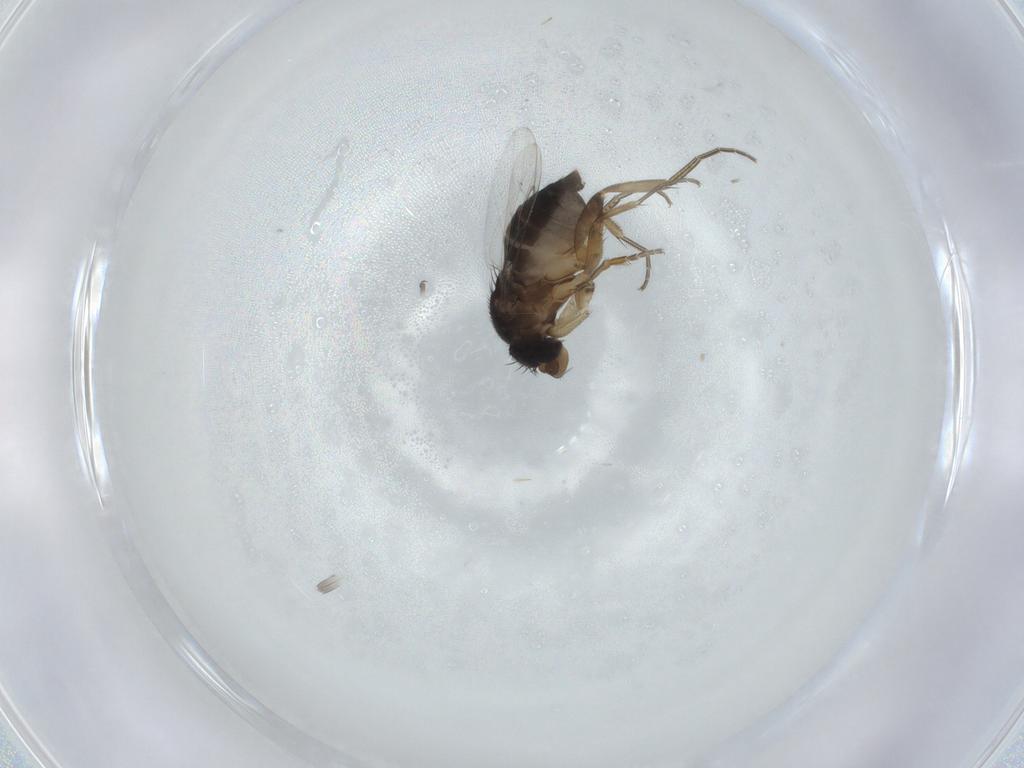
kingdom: Animalia
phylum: Arthropoda
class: Insecta
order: Diptera
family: Phoridae
